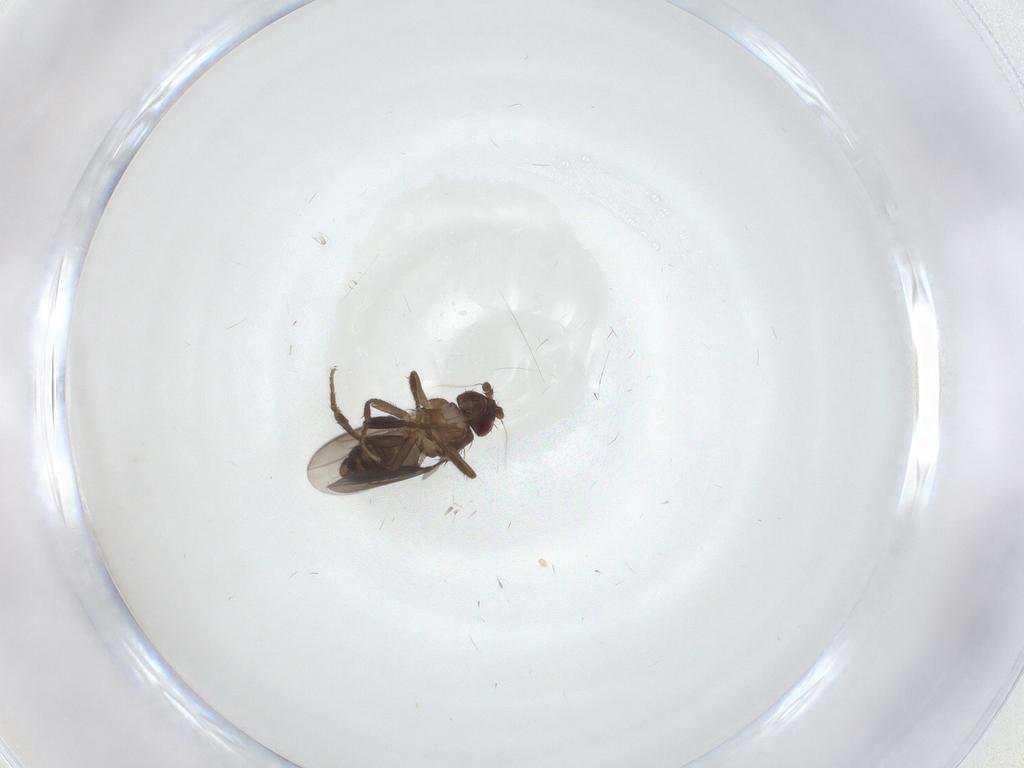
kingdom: Animalia
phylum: Arthropoda
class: Insecta
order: Diptera
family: Sphaeroceridae
